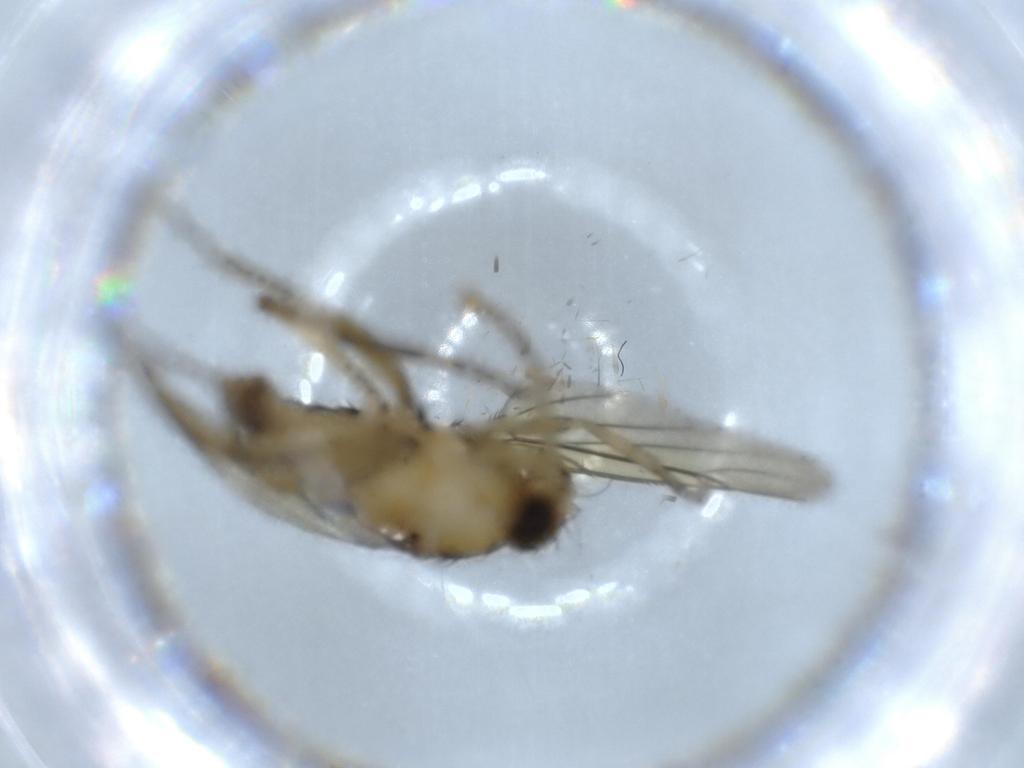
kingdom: Animalia
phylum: Arthropoda
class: Insecta
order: Diptera
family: Phoridae
